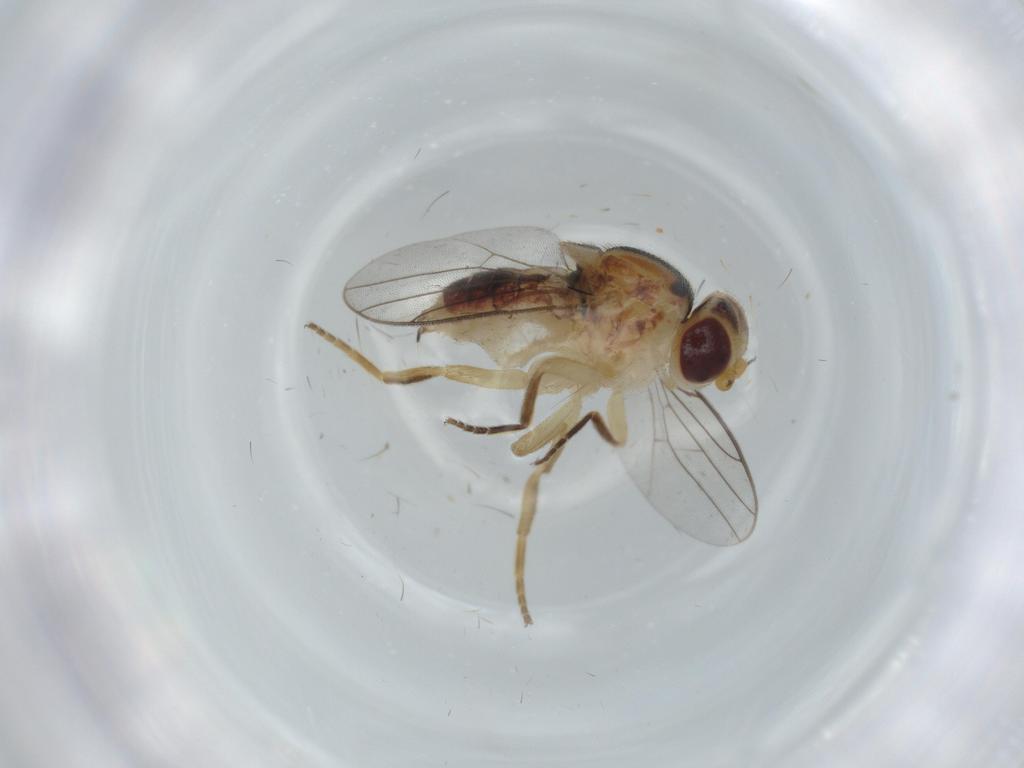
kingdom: Animalia
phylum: Arthropoda
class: Insecta
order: Diptera
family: Chloropidae
